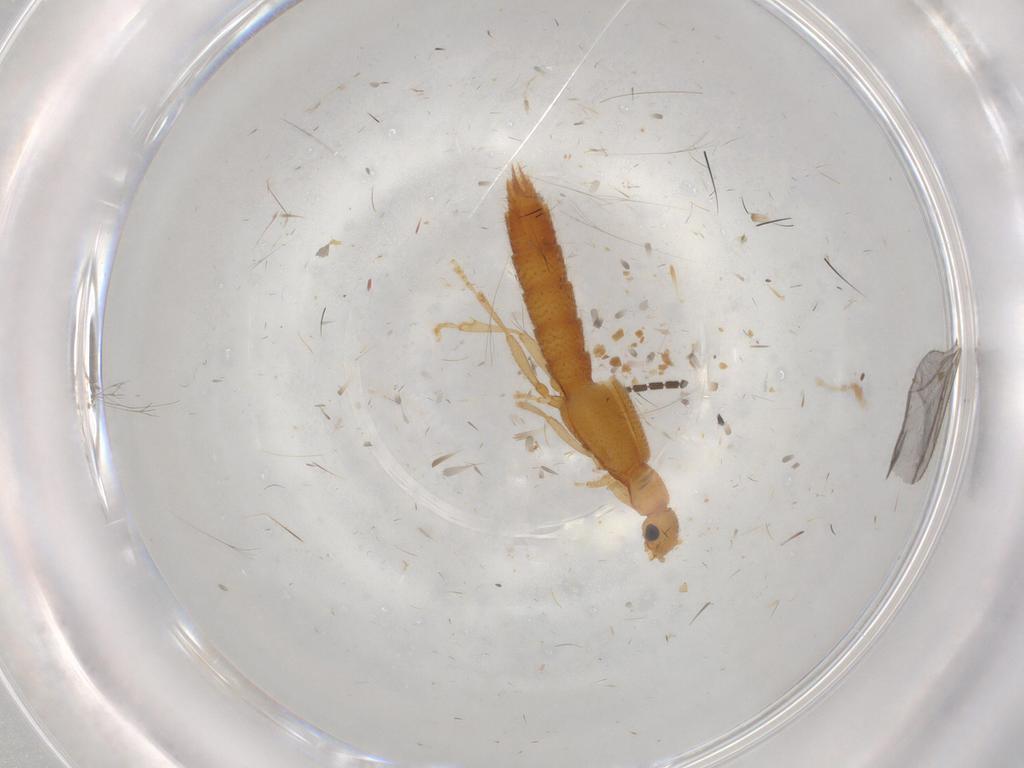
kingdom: Animalia
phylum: Arthropoda
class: Insecta
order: Coleoptera
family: Staphylinidae
